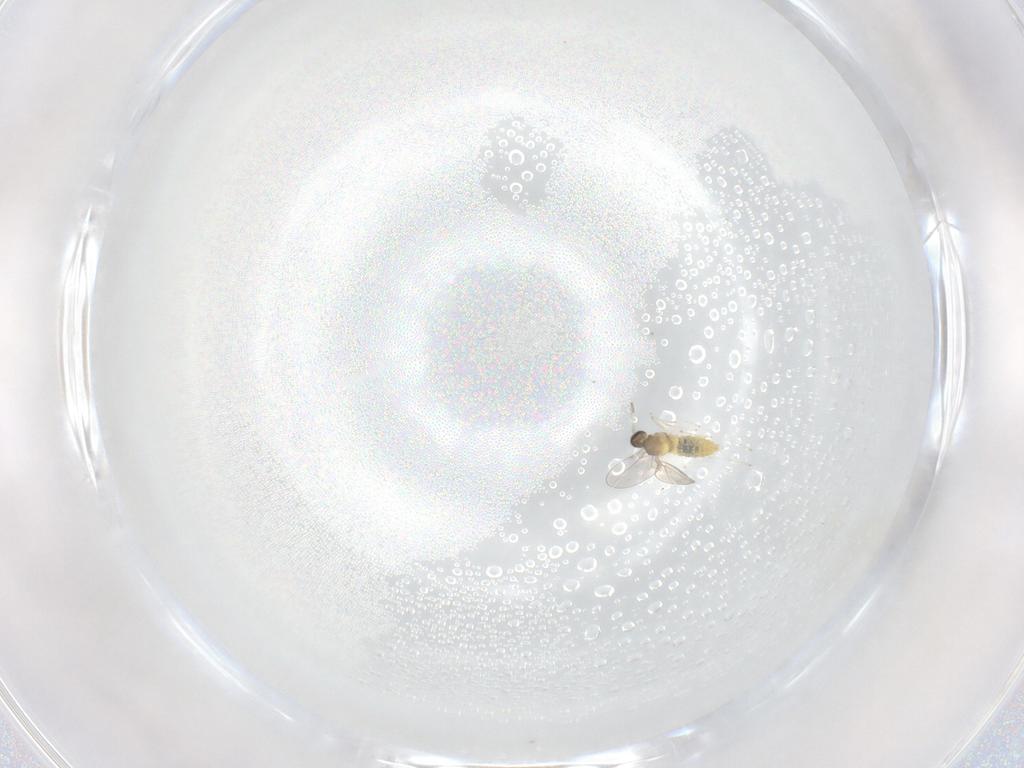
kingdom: Animalia
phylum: Arthropoda
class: Insecta
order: Diptera
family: Cecidomyiidae
